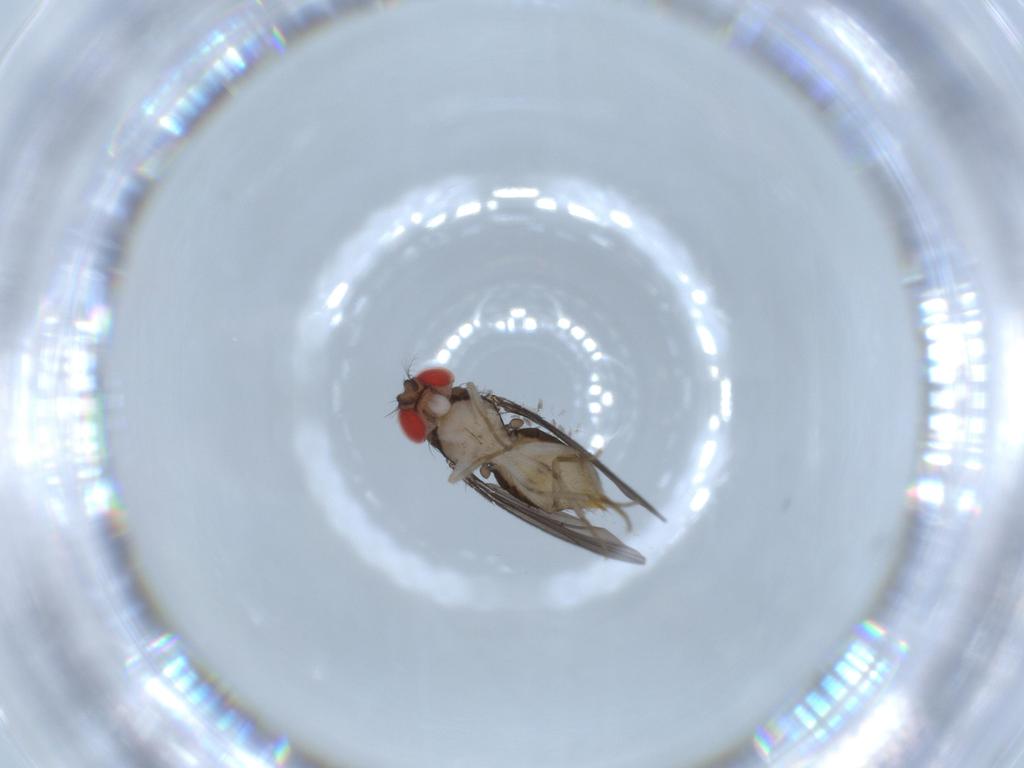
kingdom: Animalia
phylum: Arthropoda
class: Insecta
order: Diptera
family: Drosophilidae
